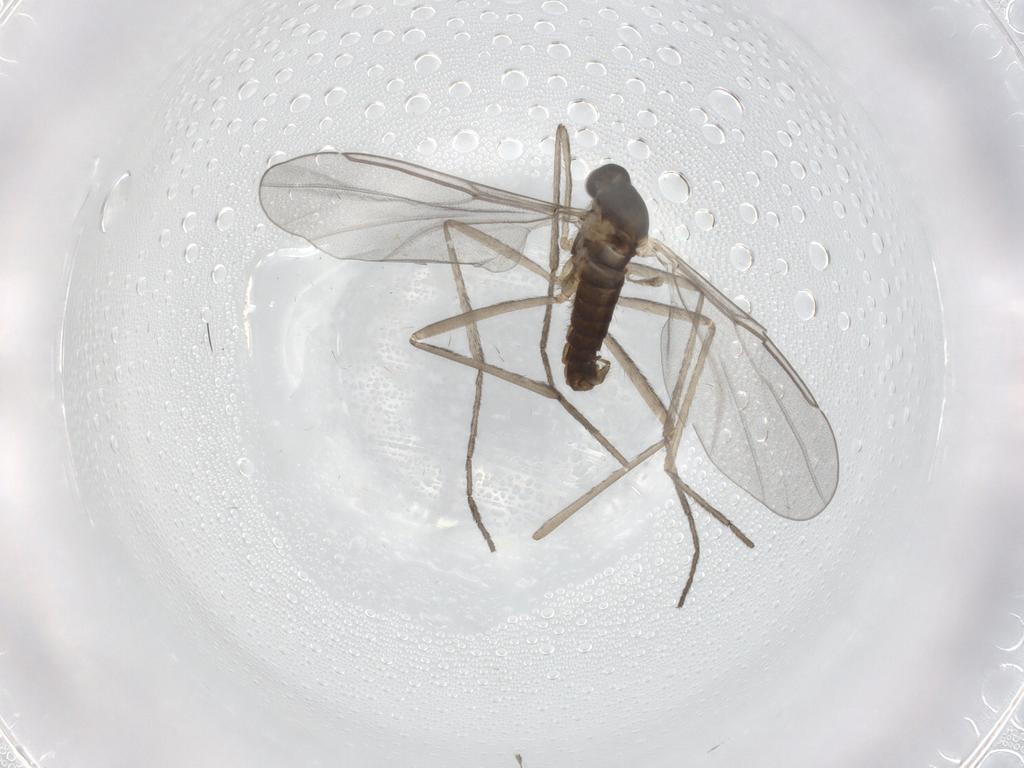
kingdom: Animalia
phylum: Arthropoda
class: Insecta
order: Diptera
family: Cecidomyiidae
